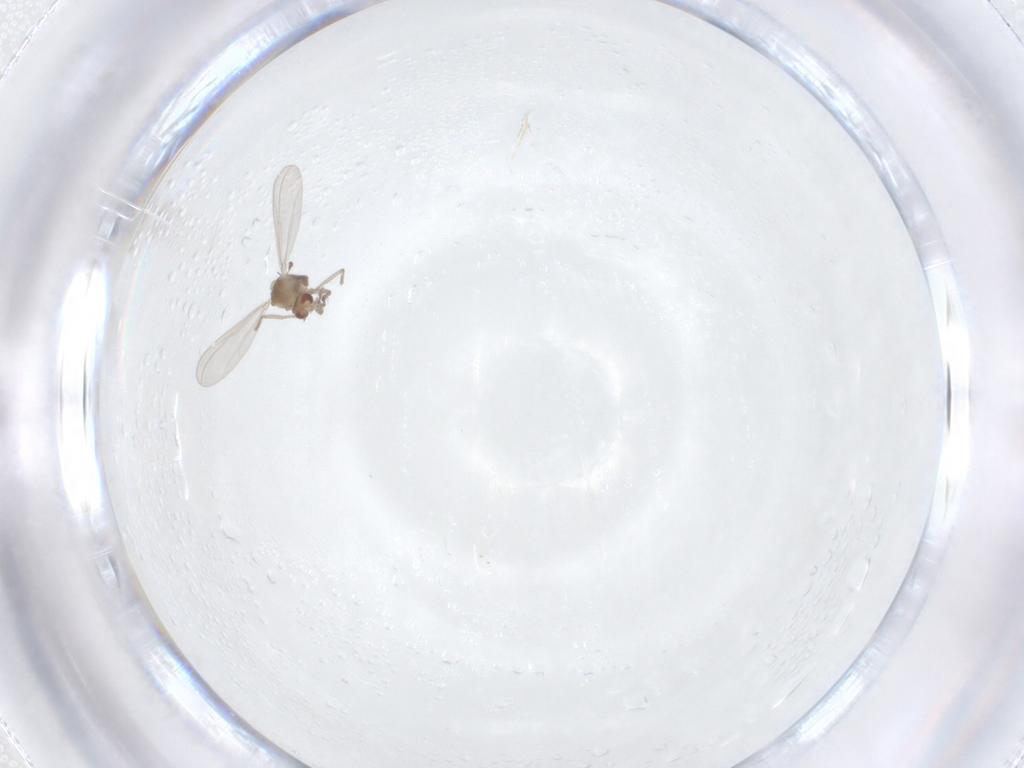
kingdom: Animalia
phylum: Arthropoda
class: Insecta
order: Diptera
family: Chironomidae
